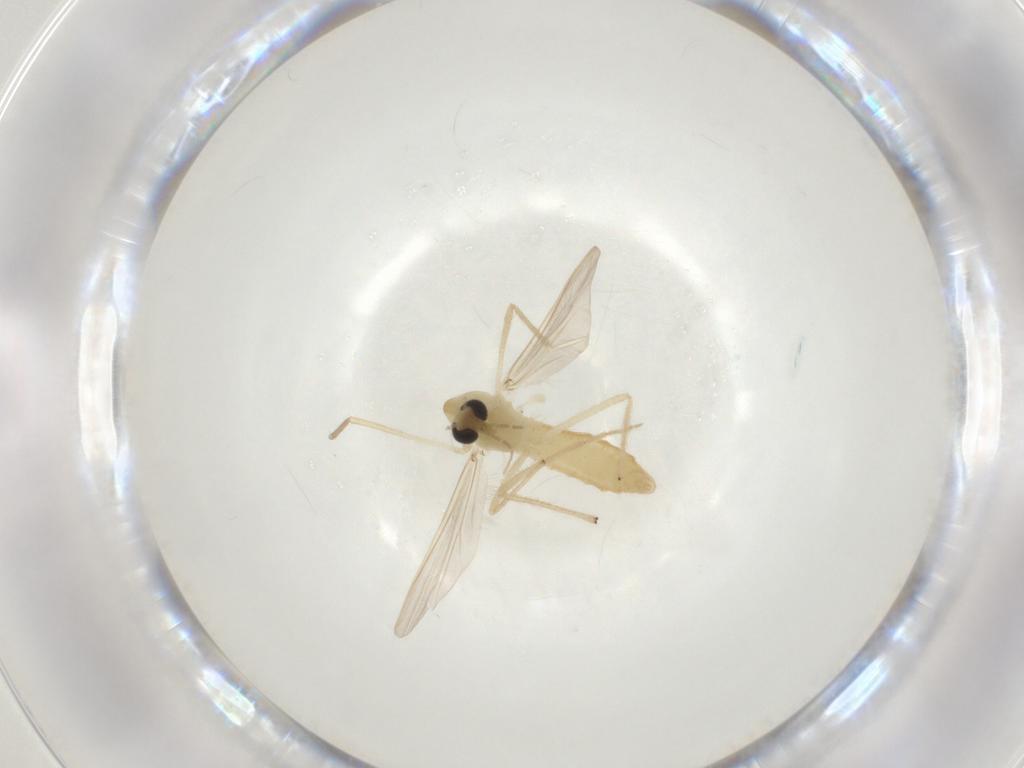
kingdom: Animalia
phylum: Arthropoda
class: Insecta
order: Diptera
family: Chironomidae
